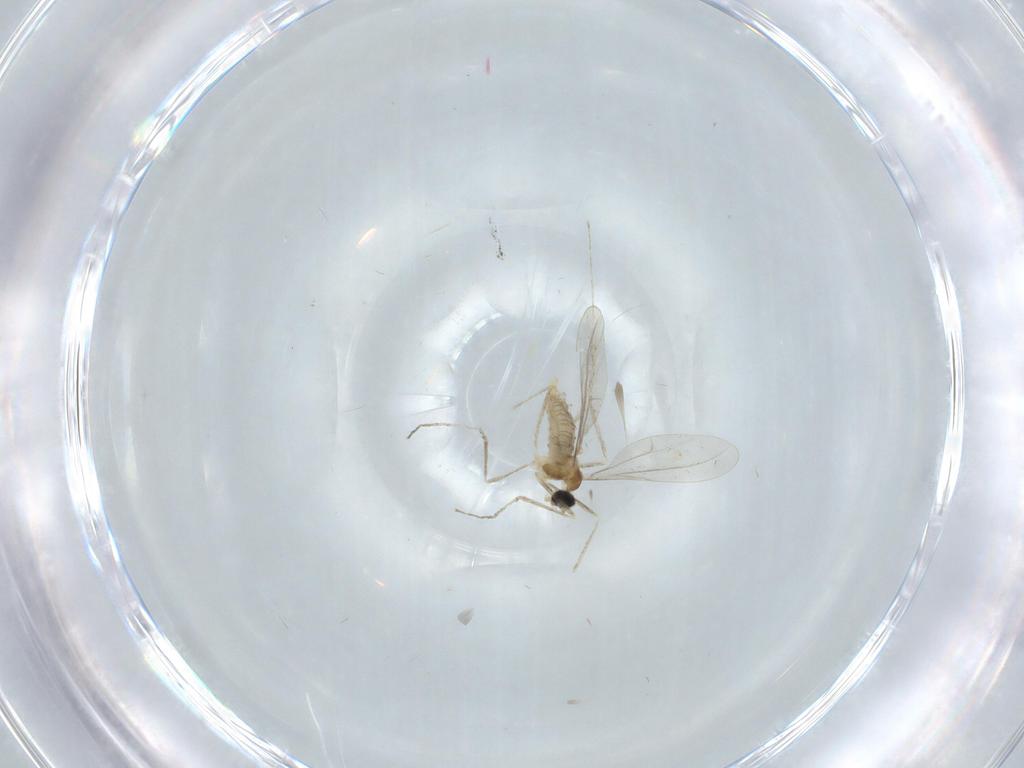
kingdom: Animalia
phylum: Arthropoda
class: Insecta
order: Diptera
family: Cecidomyiidae
